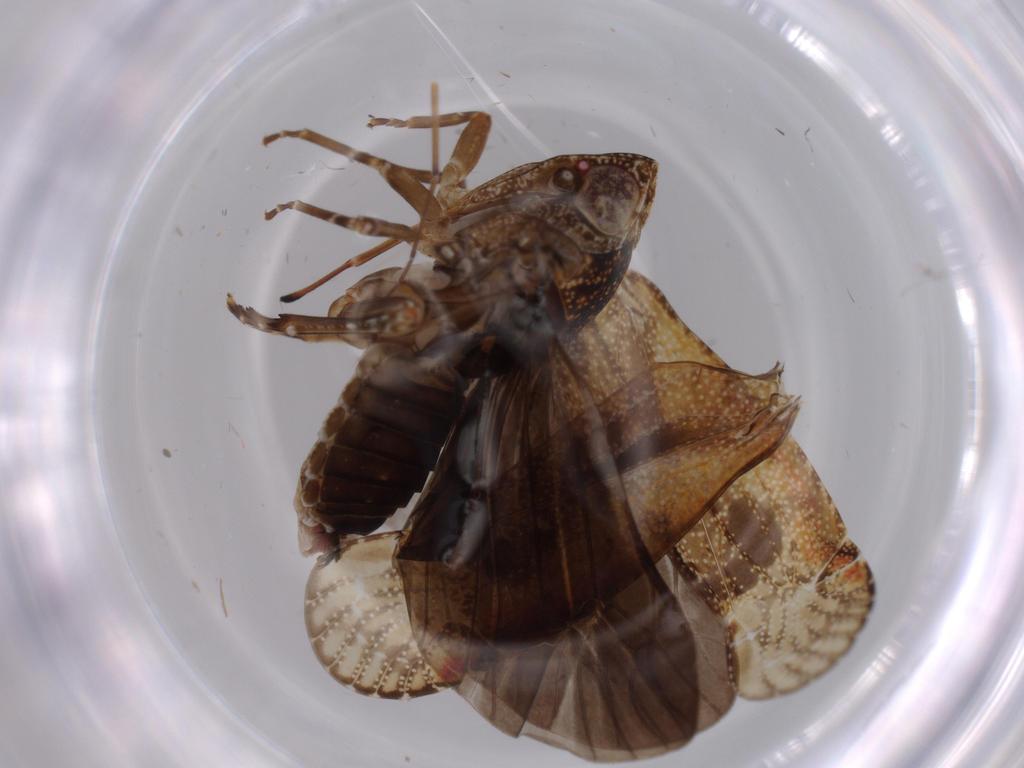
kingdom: Animalia
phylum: Arthropoda
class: Insecta
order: Hemiptera
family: Achilidae
